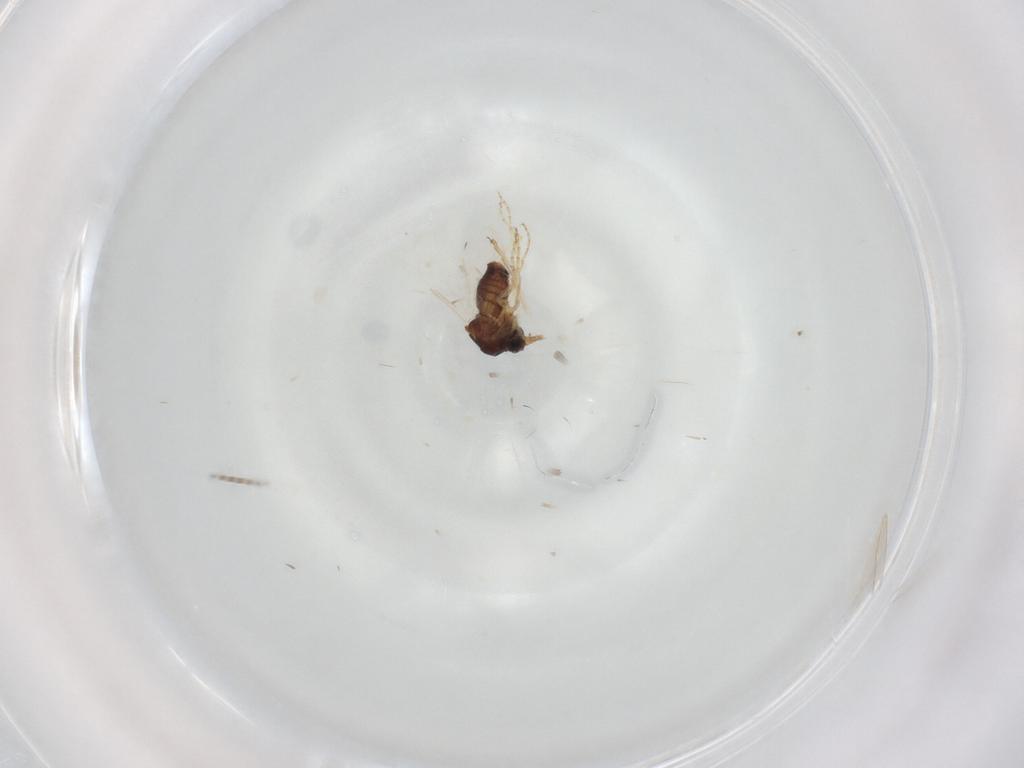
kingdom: Animalia
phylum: Arthropoda
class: Insecta
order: Diptera
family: Ceratopogonidae
